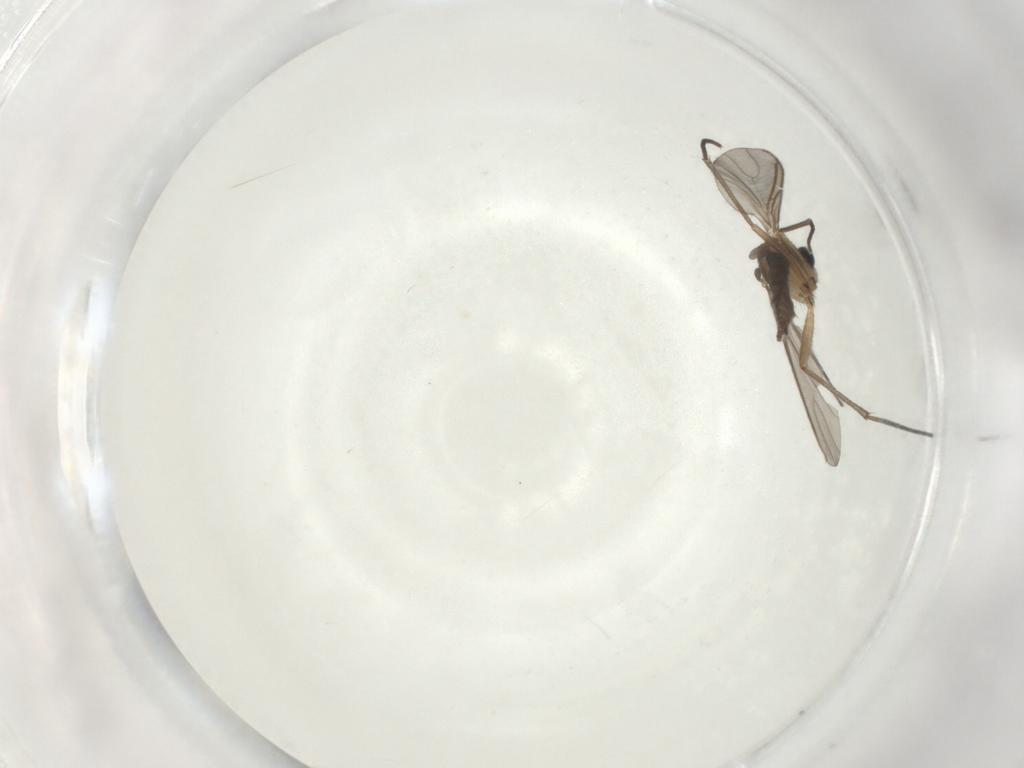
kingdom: Animalia
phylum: Arthropoda
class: Insecta
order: Diptera
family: Sciaridae
